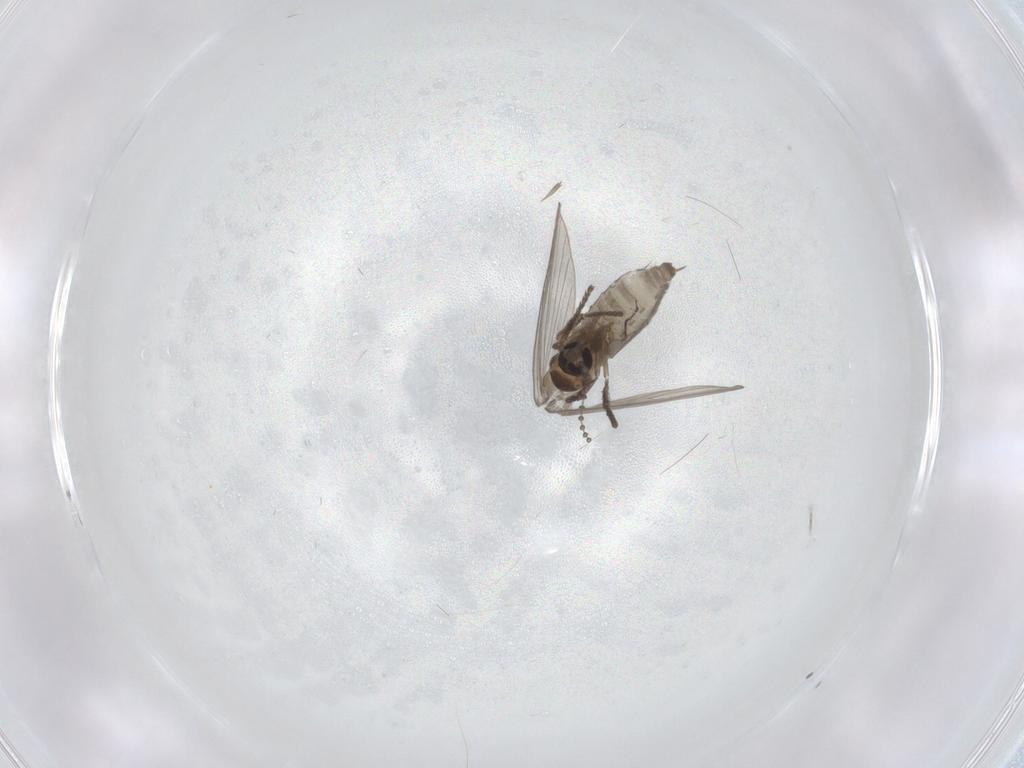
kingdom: Animalia
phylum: Arthropoda
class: Insecta
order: Diptera
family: Psychodidae
